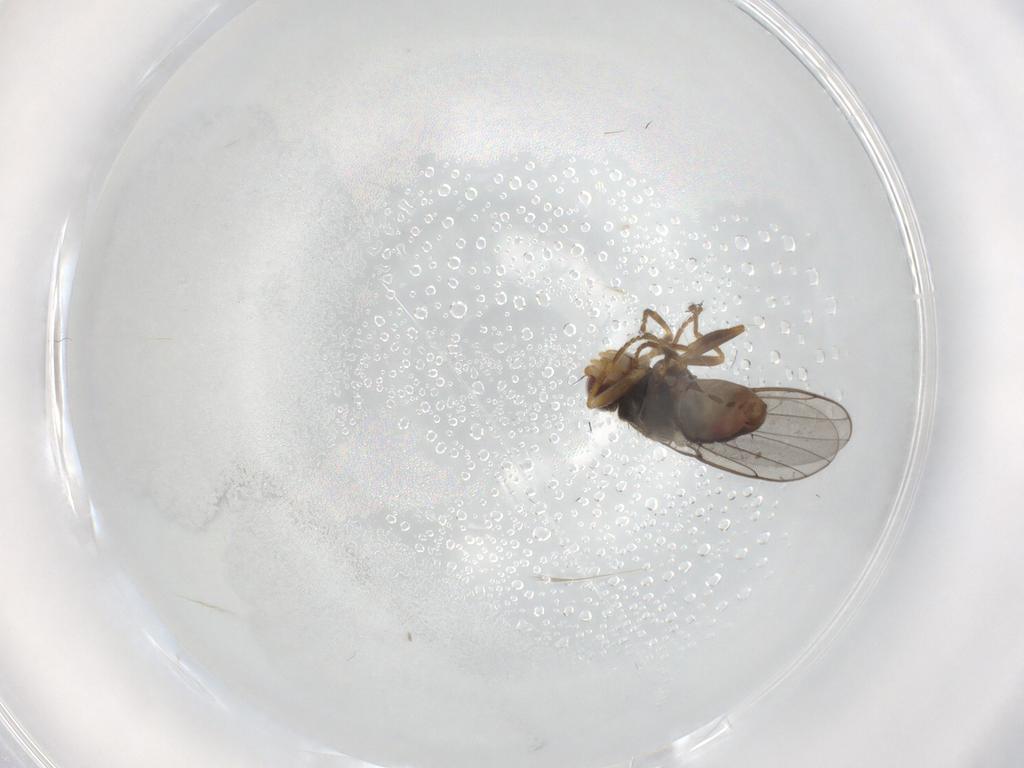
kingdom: Animalia
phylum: Arthropoda
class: Insecta
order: Diptera
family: Chloropidae
